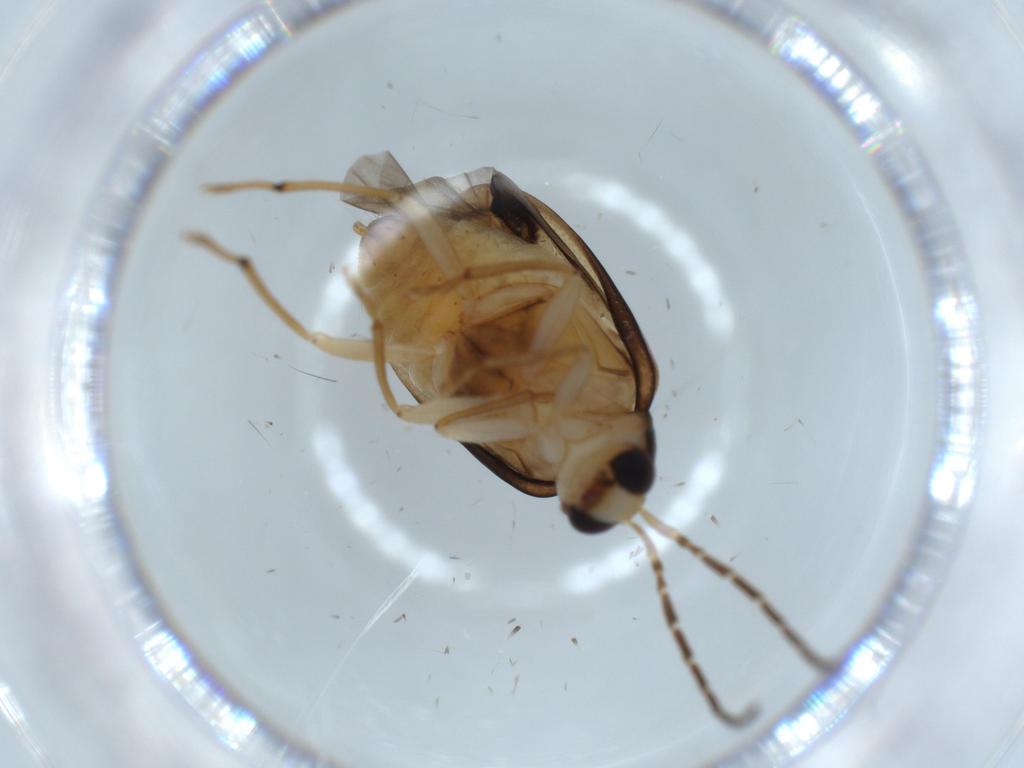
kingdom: Animalia
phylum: Arthropoda
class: Insecta
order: Coleoptera
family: Chrysomelidae
